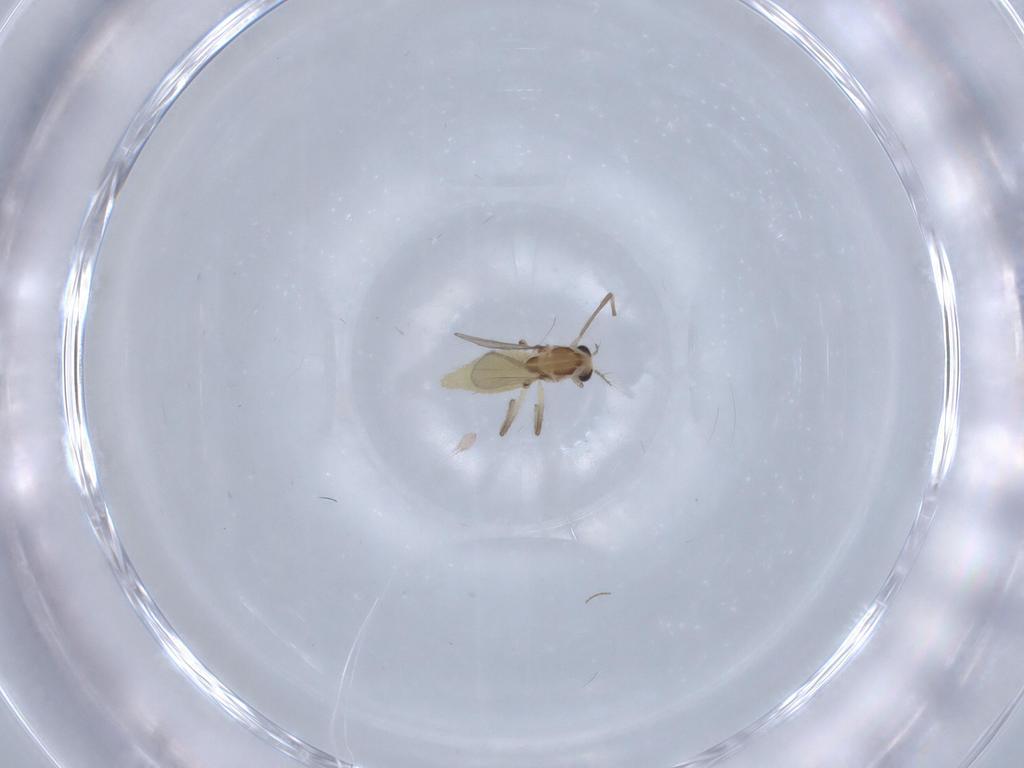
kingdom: Animalia
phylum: Arthropoda
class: Insecta
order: Diptera
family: Chironomidae
